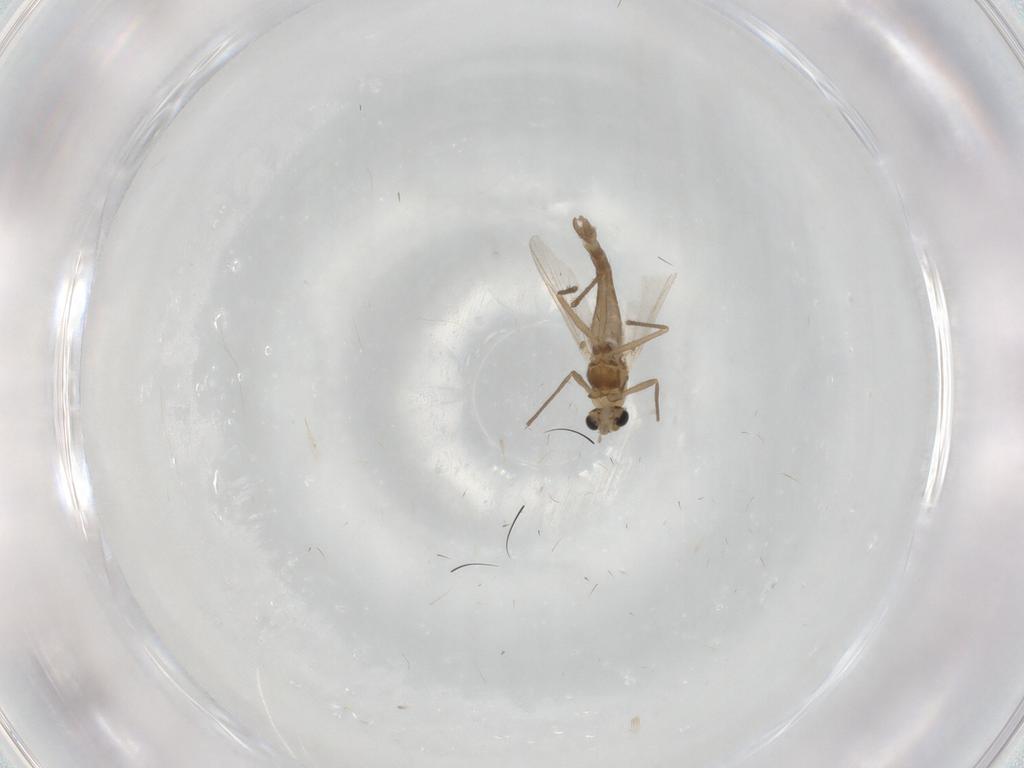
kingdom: Animalia
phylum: Arthropoda
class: Insecta
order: Diptera
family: Chironomidae
